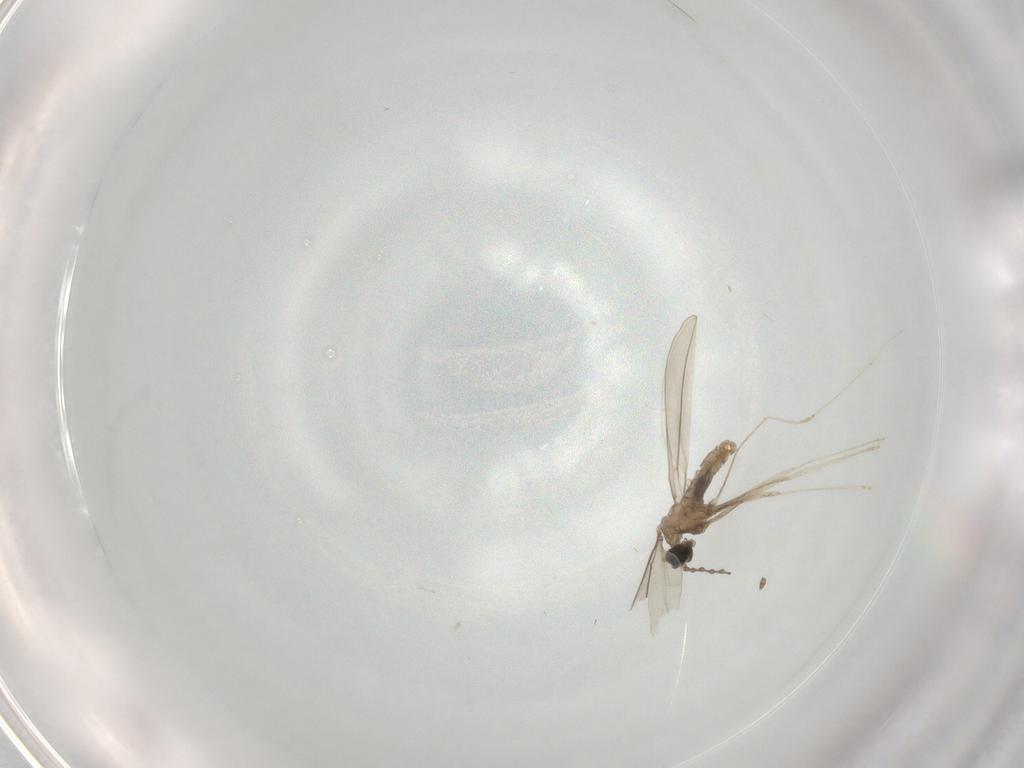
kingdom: Animalia
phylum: Arthropoda
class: Insecta
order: Diptera
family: Cecidomyiidae
